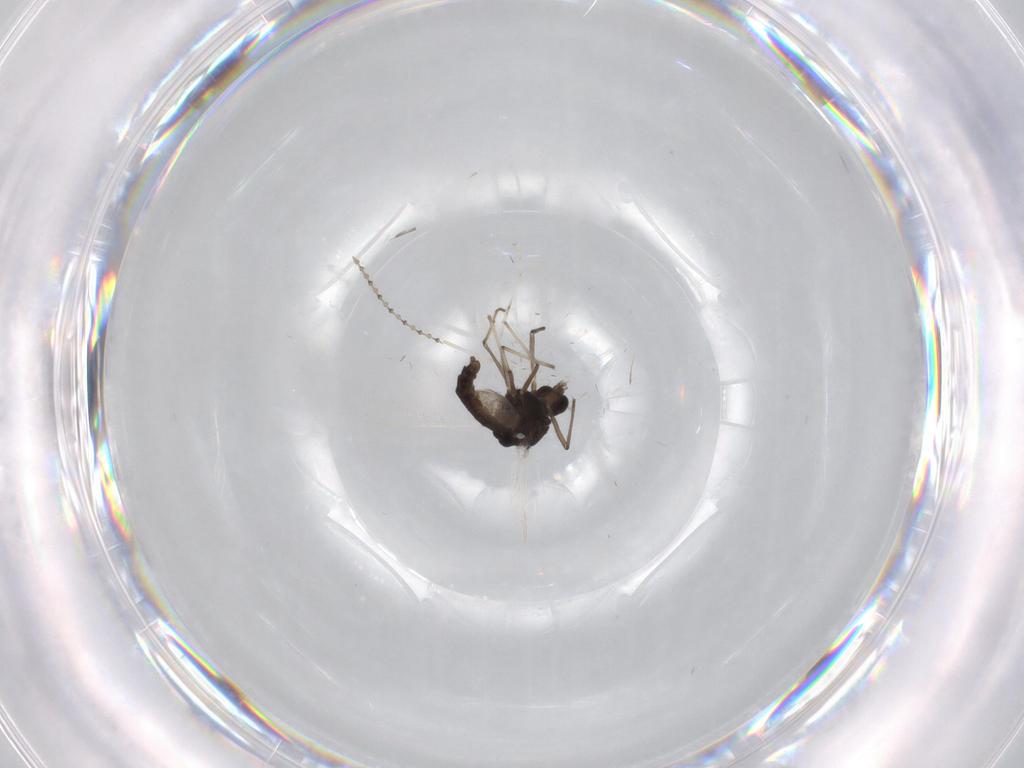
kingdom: Animalia
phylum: Arthropoda
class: Insecta
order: Diptera
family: Chironomidae
